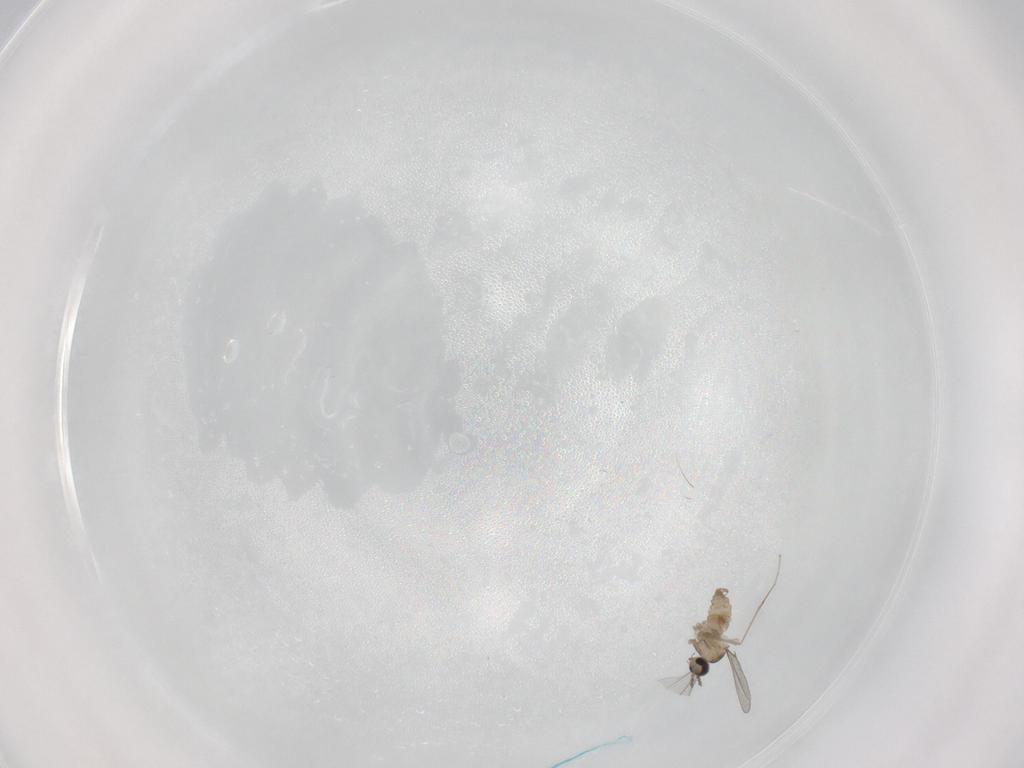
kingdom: Animalia
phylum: Arthropoda
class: Insecta
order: Diptera
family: Cecidomyiidae
